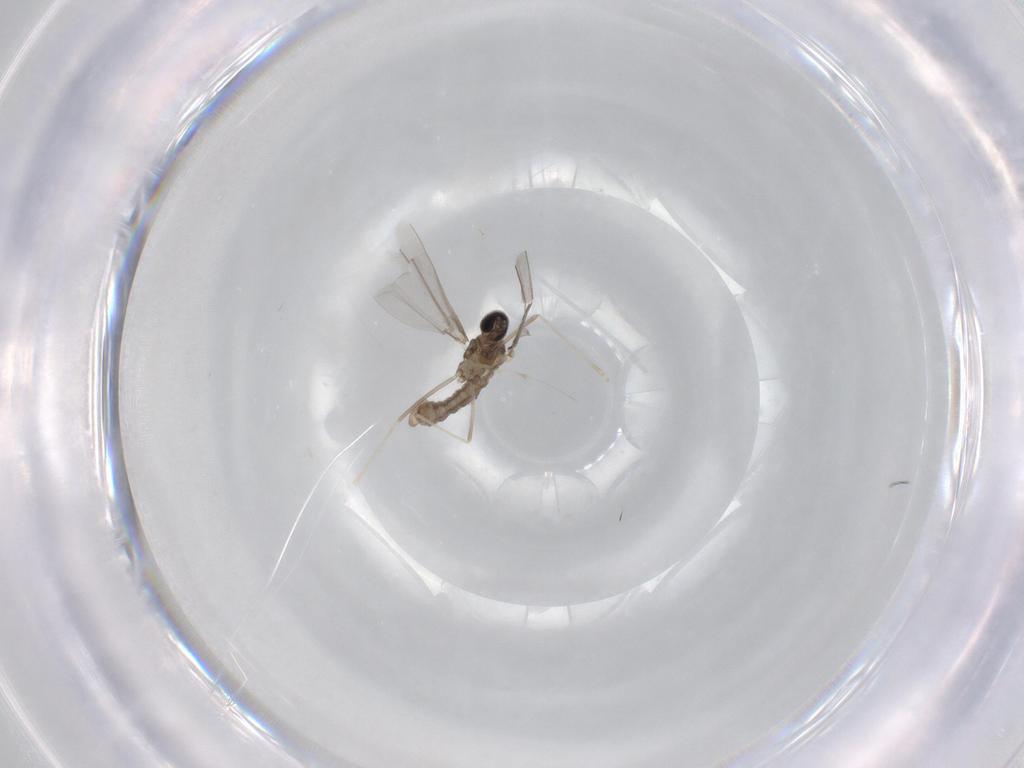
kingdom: Animalia
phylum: Arthropoda
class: Insecta
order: Diptera
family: Cecidomyiidae
